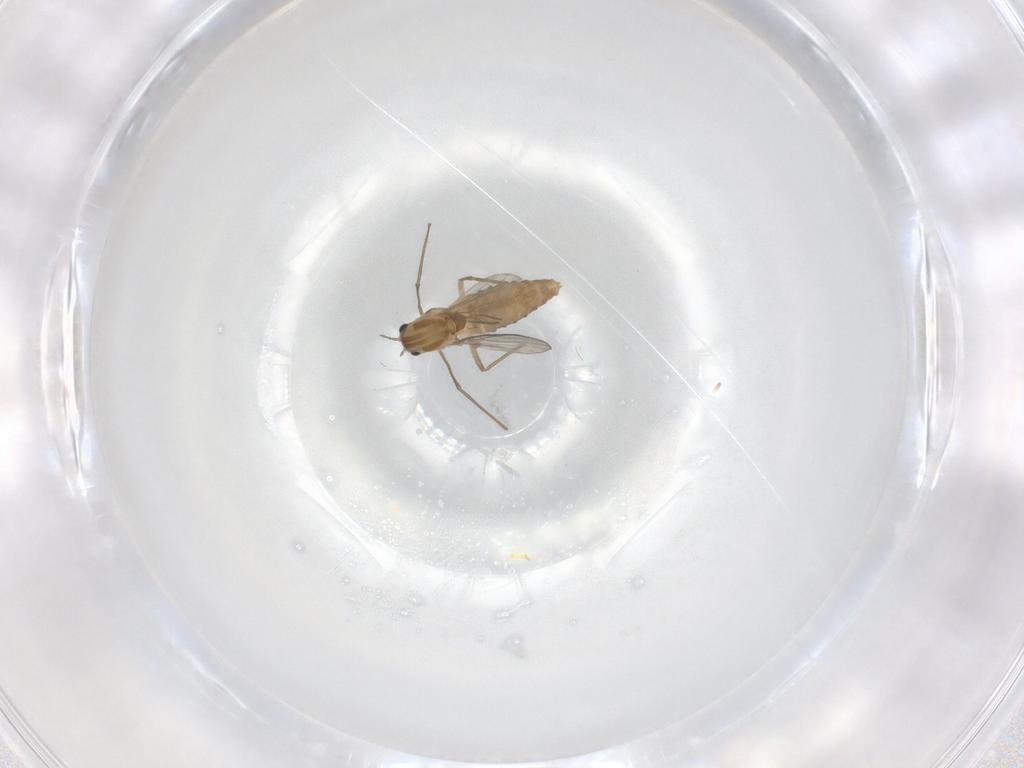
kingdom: Animalia
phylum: Arthropoda
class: Insecta
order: Diptera
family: Chironomidae
